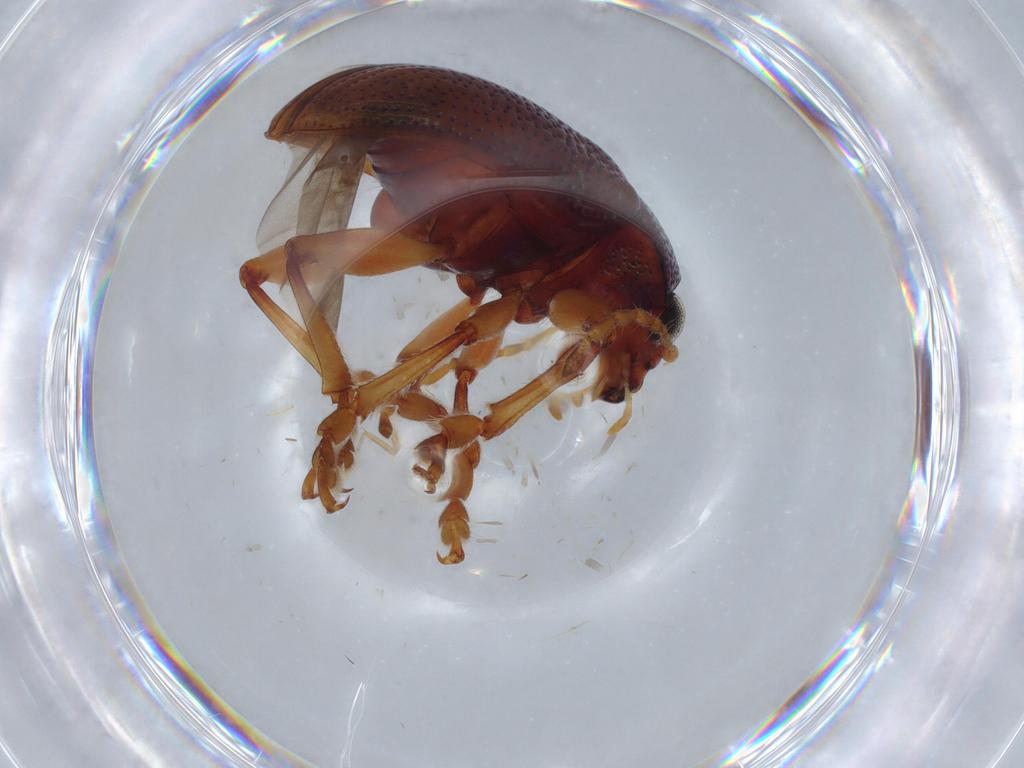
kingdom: Animalia
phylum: Arthropoda
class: Insecta
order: Coleoptera
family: Chrysomelidae
